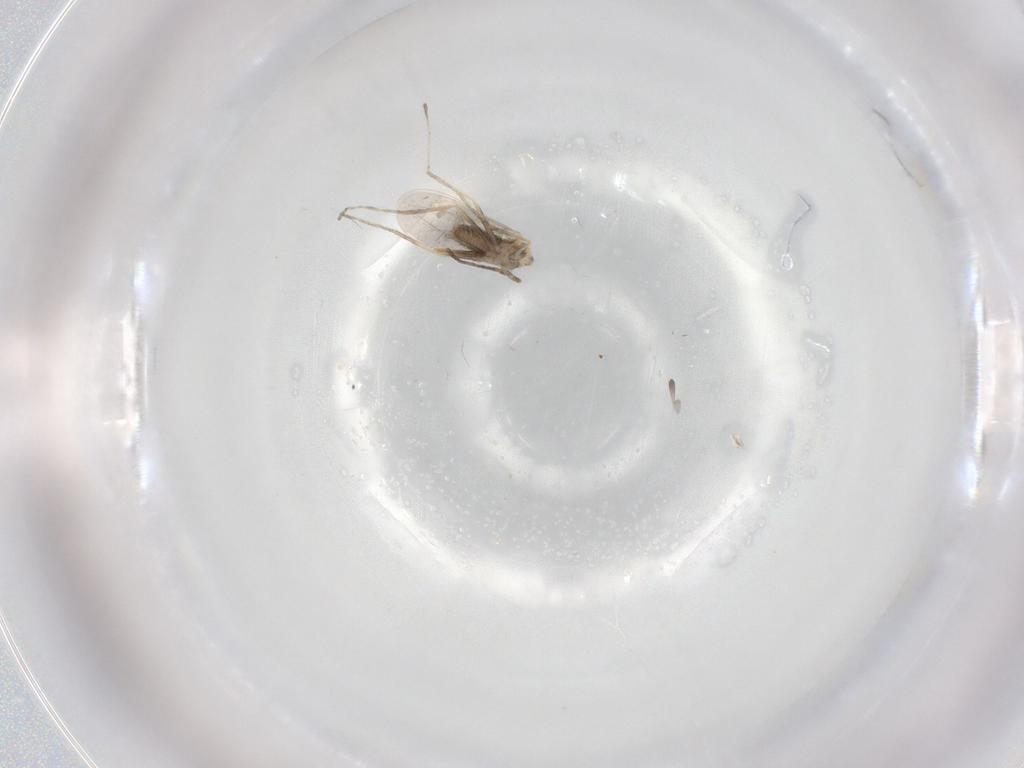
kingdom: Animalia
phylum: Arthropoda
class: Insecta
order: Diptera
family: Cecidomyiidae
